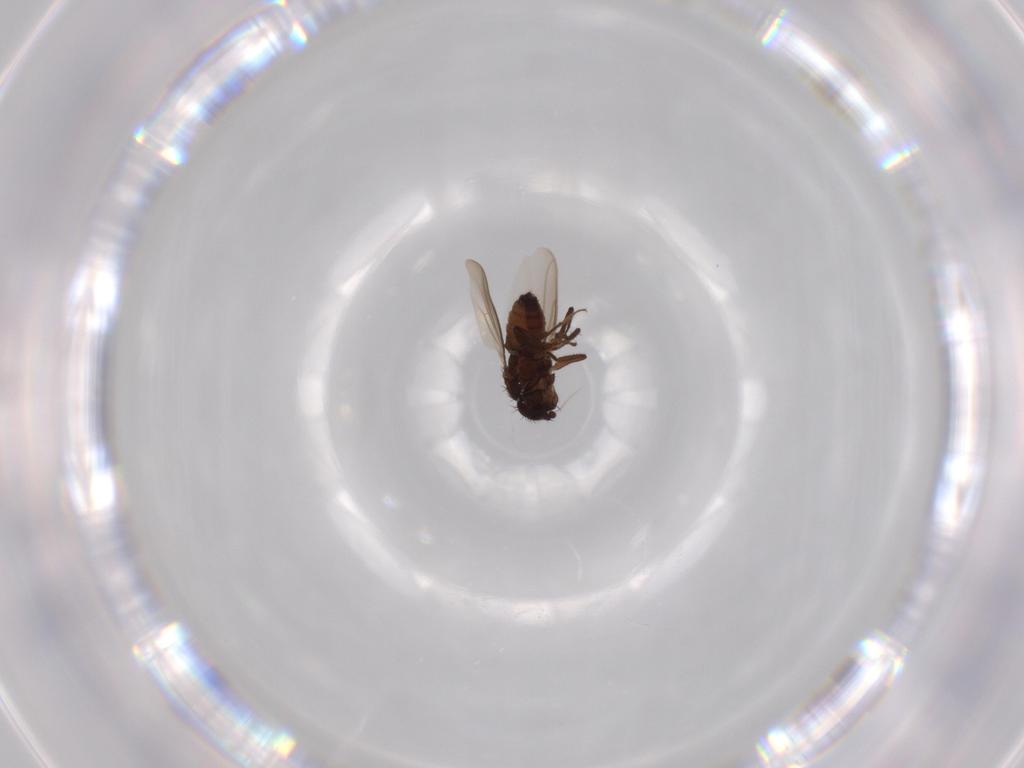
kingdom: Animalia
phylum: Arthropoda
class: Insecta
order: Diptera
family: Sphaeroceridae
